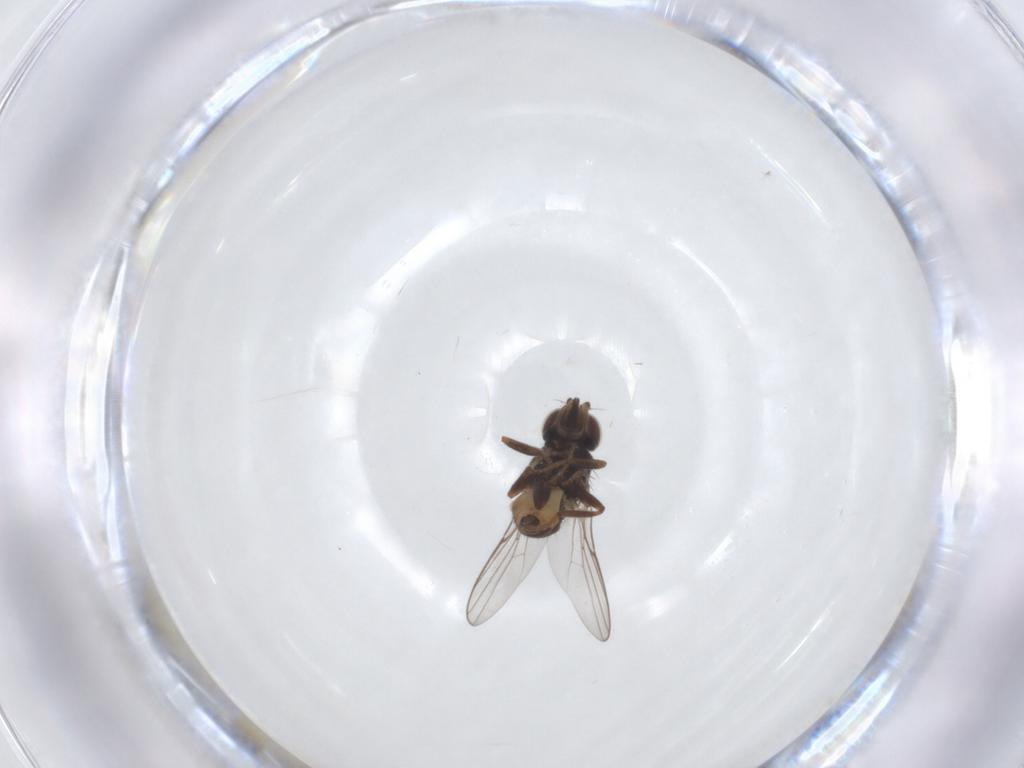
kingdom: Animalia
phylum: Arthropoda
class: Insecta
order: Diptera
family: Chloropidae
